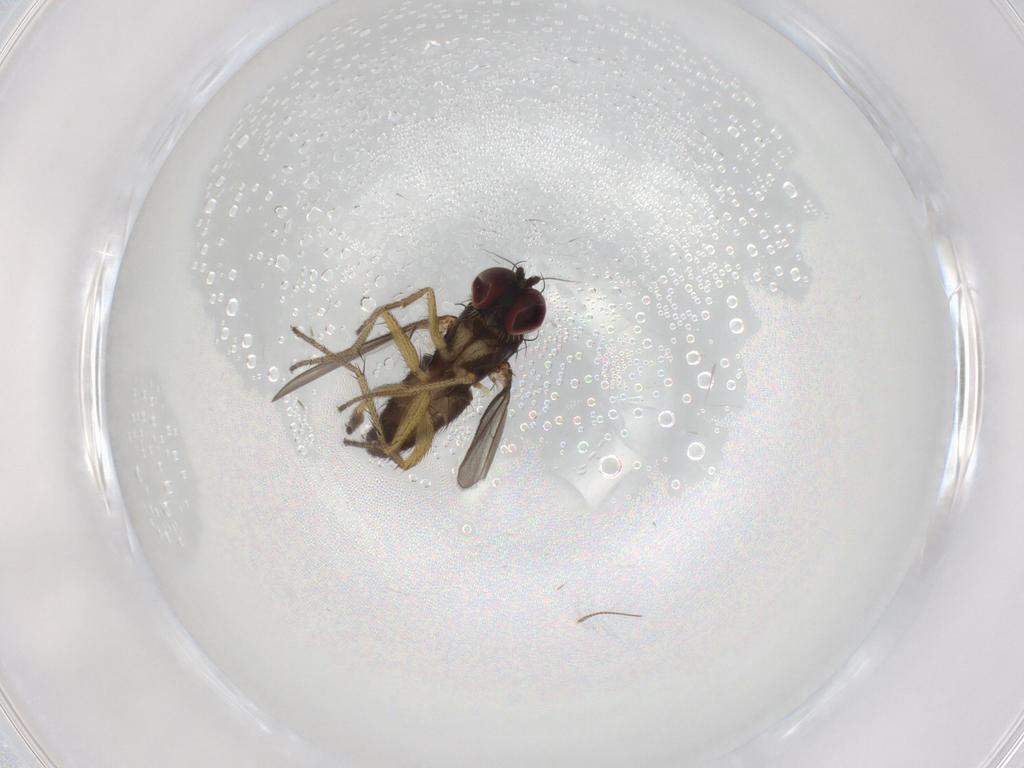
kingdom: Animalia
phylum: Arthropoda
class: Insecta
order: Diptera
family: Dolichopodidae
